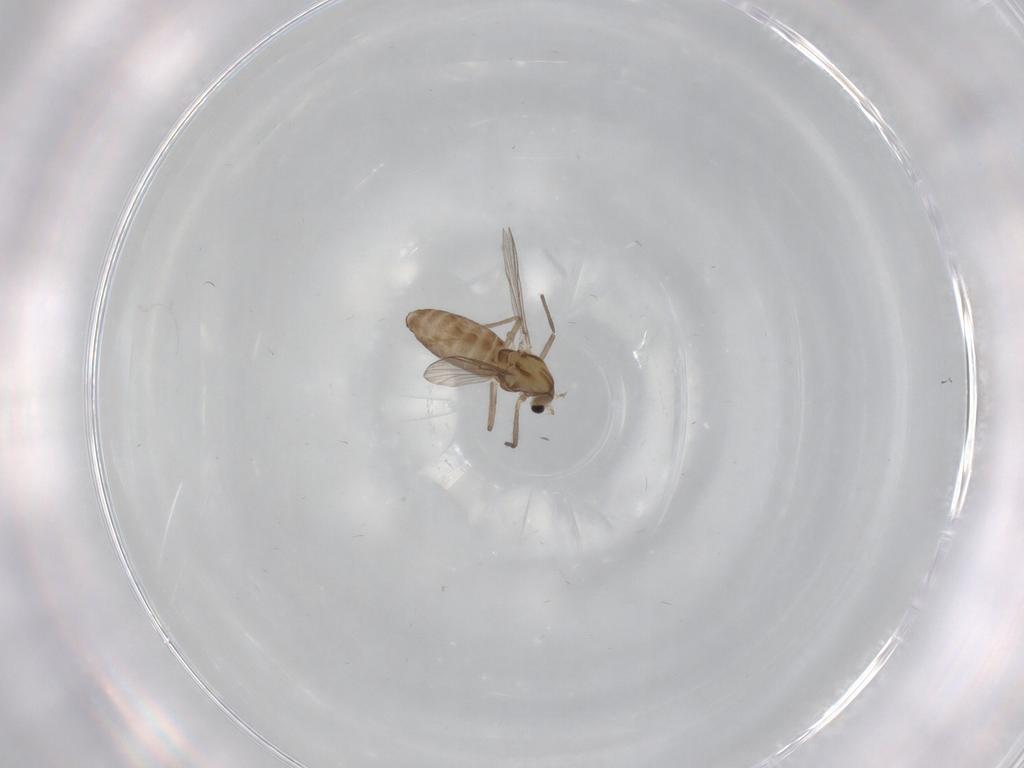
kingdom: Animalia
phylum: Arthropoda
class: Insecta
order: Diptera
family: Chironomidae
